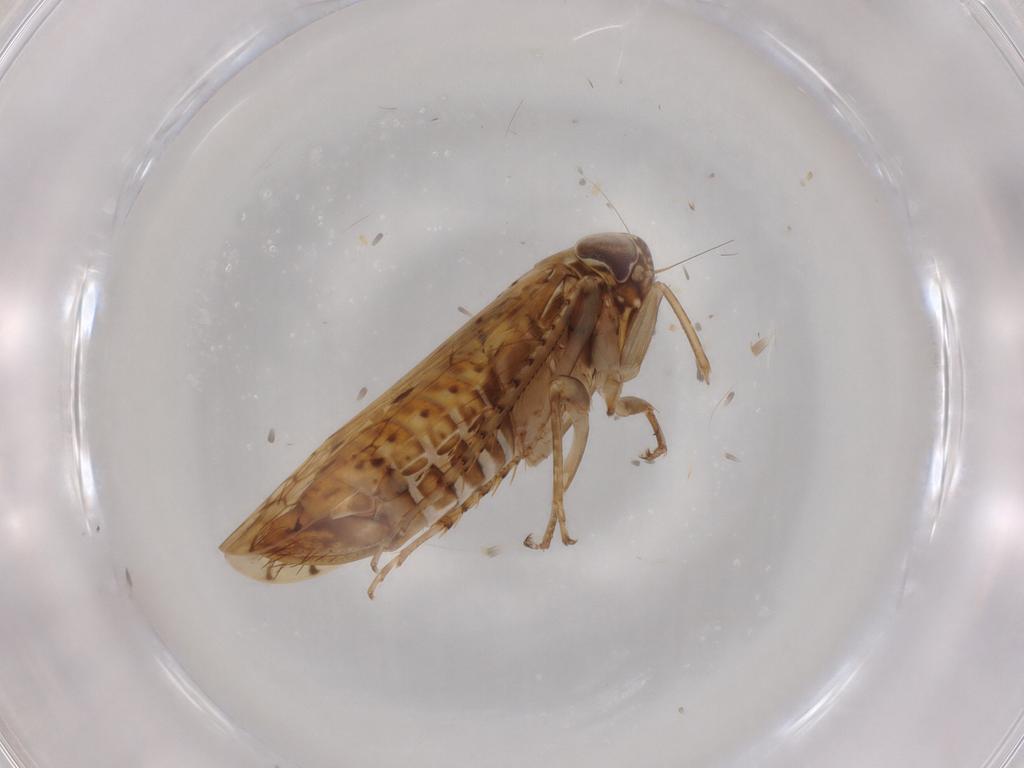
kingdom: Animalia
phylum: Arthropoda
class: Insecta
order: Hemiptera
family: Cicadellidae
